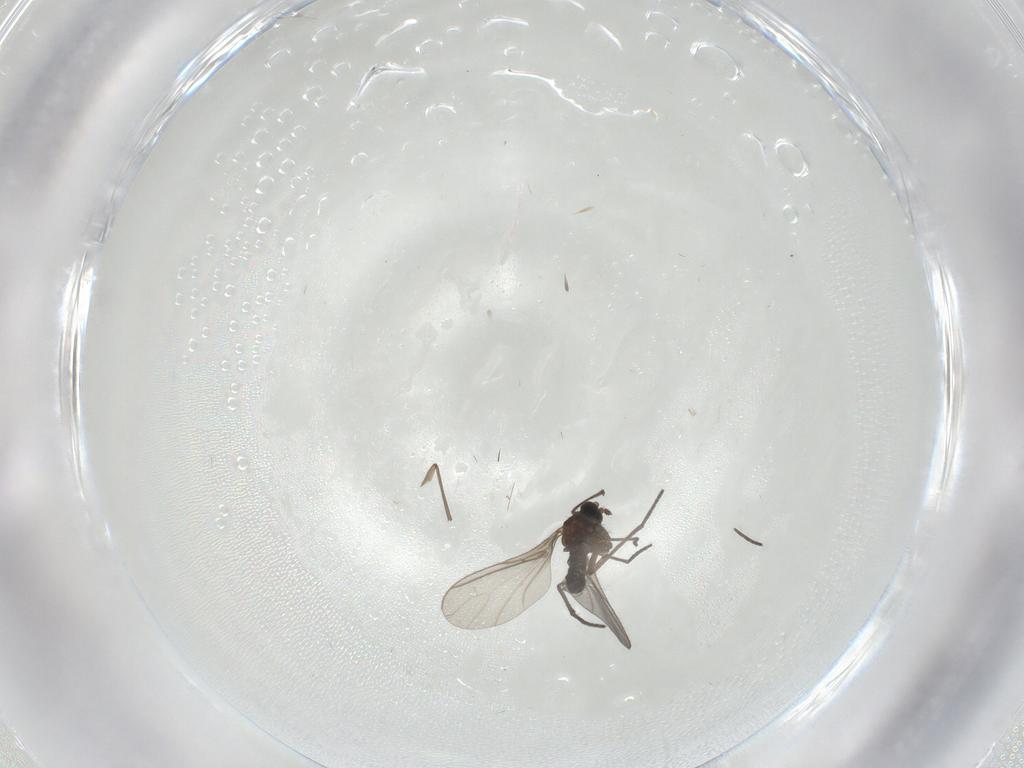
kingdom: Animalia
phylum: Arthropoda
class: Insecta
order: Diptera
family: Sciaridae
